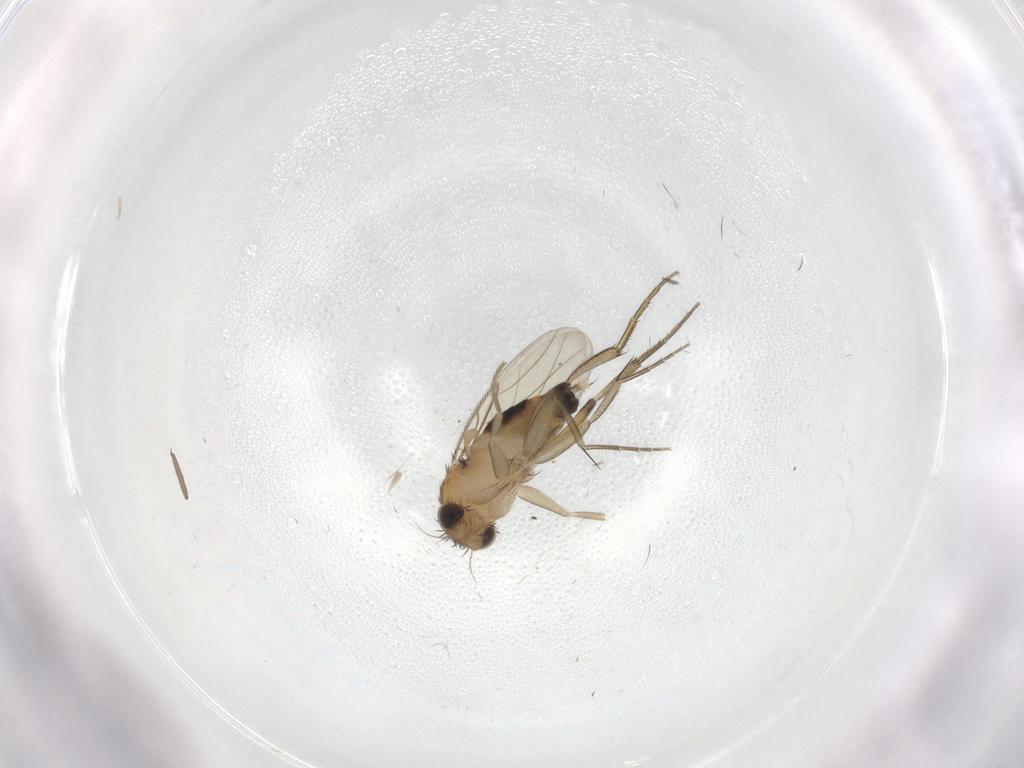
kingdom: Animalia
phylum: Arthropoda
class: Insecta
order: Diptera
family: Phoridae
